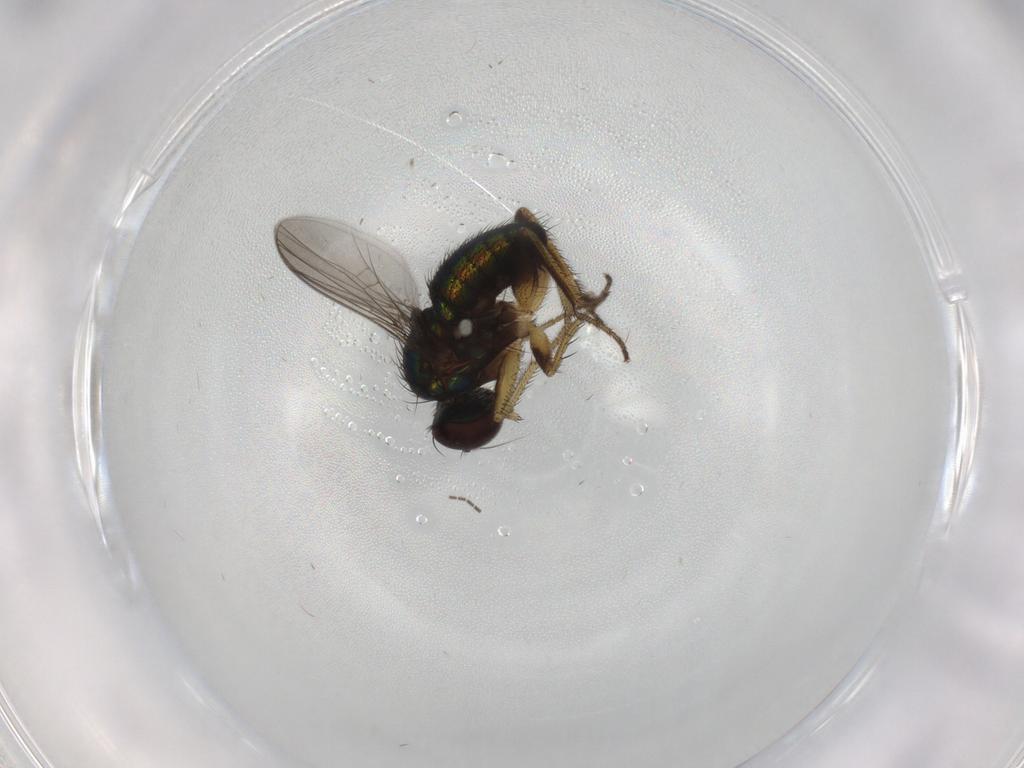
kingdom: Animalia
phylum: Arthropoda
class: Insecta
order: Diptera
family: Dolichopodidae
